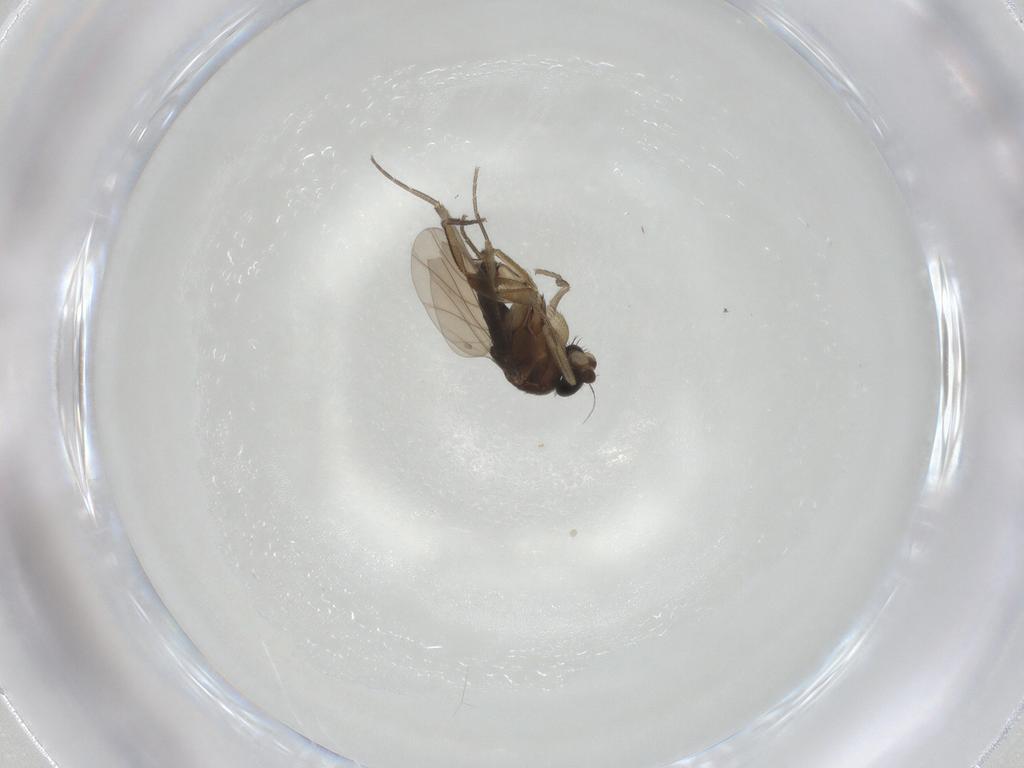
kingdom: Animalia
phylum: Arthropoda
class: Insecta
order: Diptera
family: Phoridae
